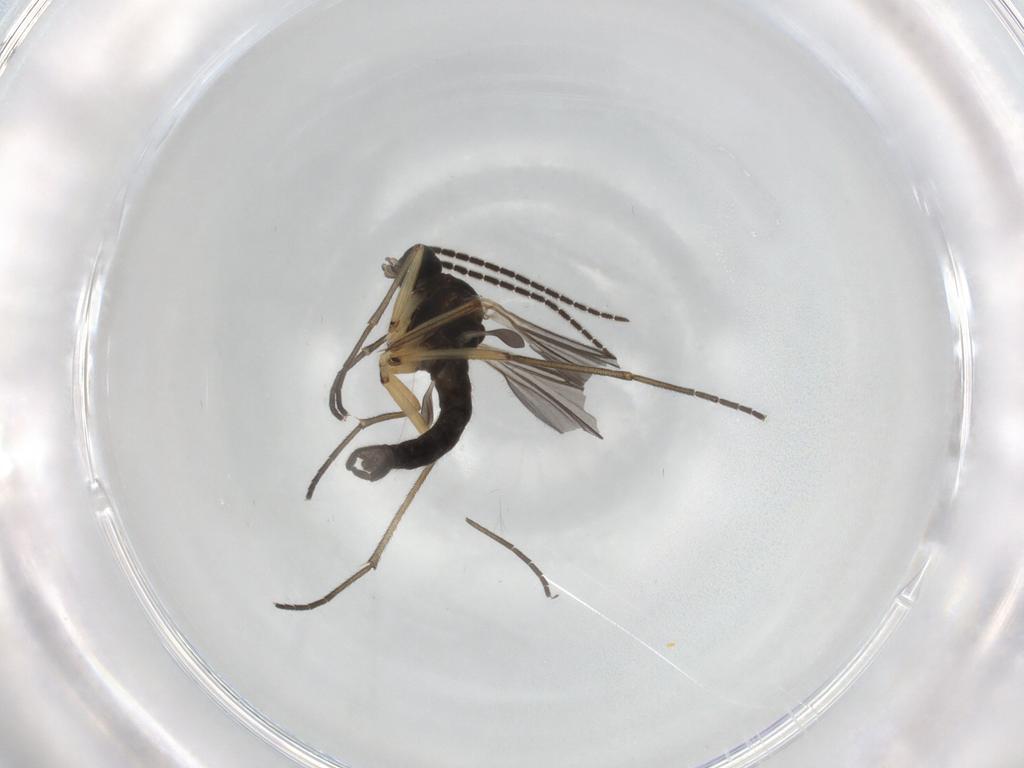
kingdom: Animalia
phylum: Arthropoda
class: Insecta
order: Diptera
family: Sciaridae
